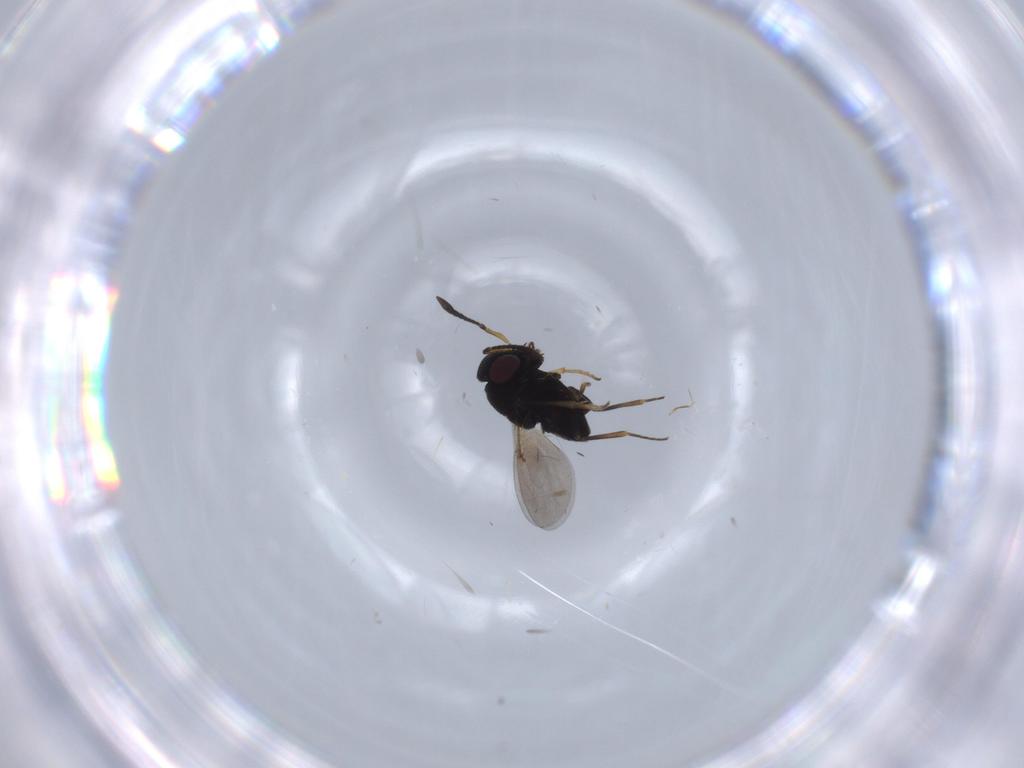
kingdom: Animalia
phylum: Arthropoda
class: Insecta
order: Hymenoptera
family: Encyrtidae
